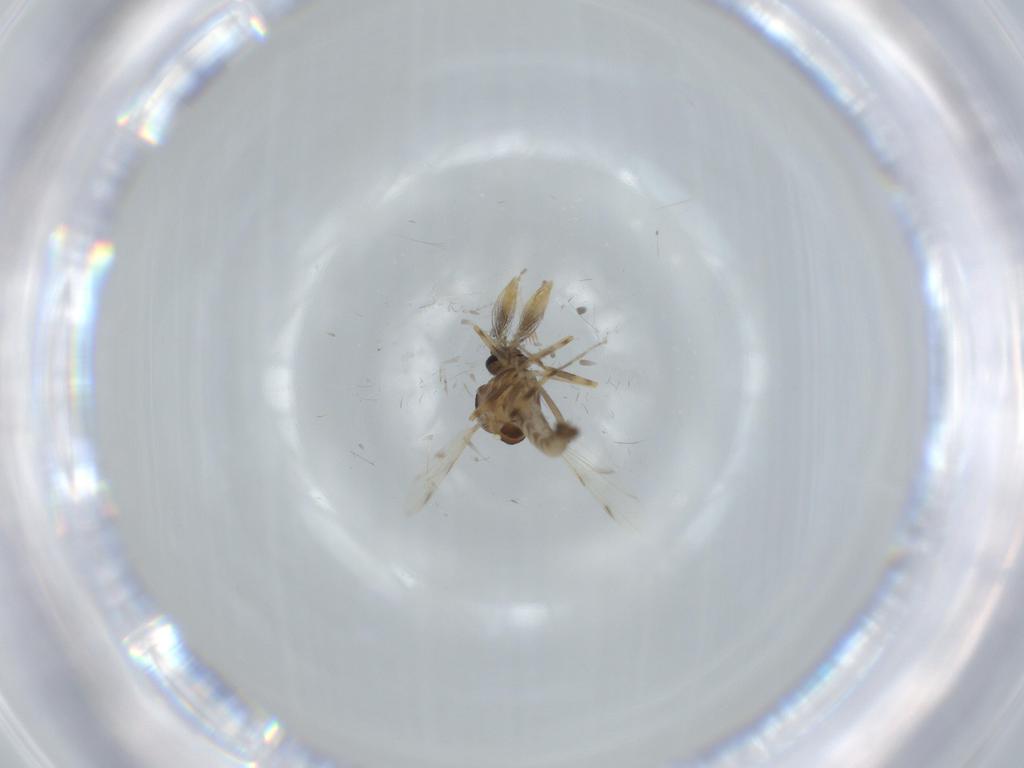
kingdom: Animalia
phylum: Arthropoda
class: Insecta
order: Diptera
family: Ceratopogonidae
